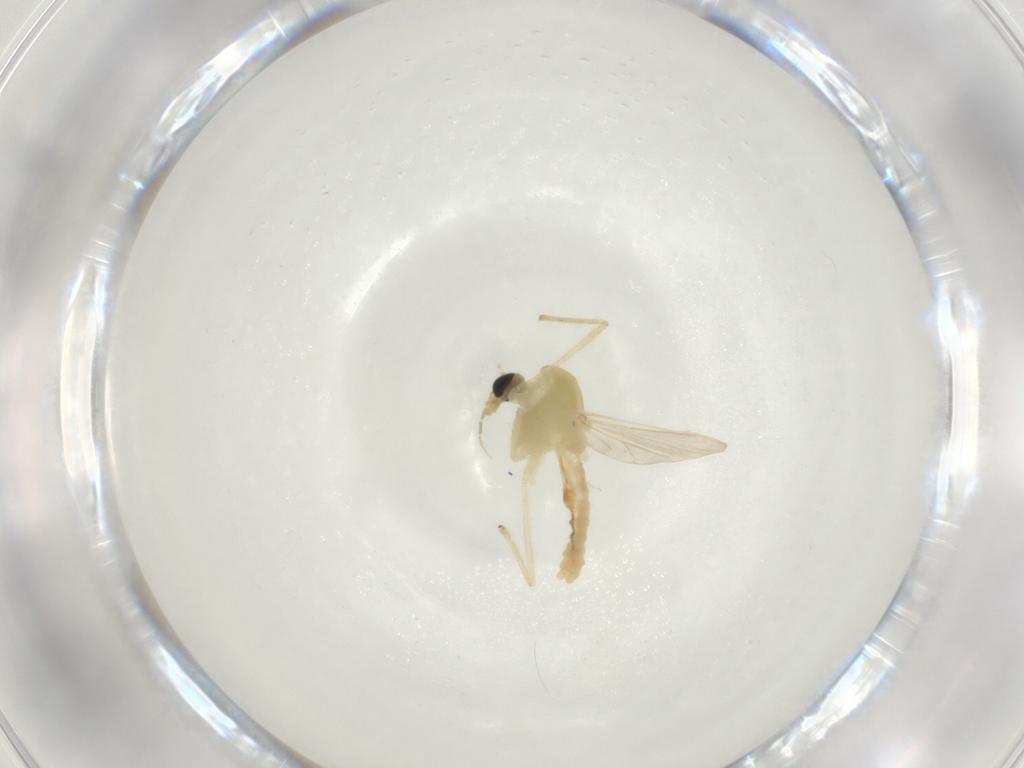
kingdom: Animalia
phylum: Arthropoda
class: Insecta
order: Diptera
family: Chironomidae
